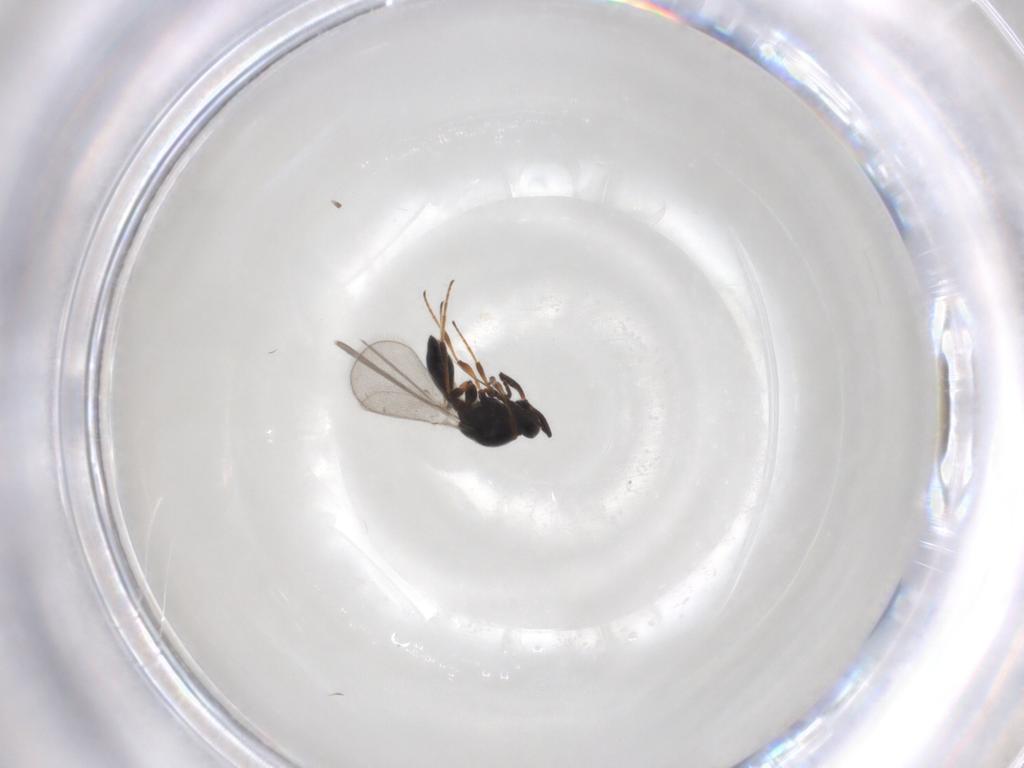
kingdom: Animalia
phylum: Arthropoda
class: Insecta
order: Hymenoptera
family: Platygastridae
